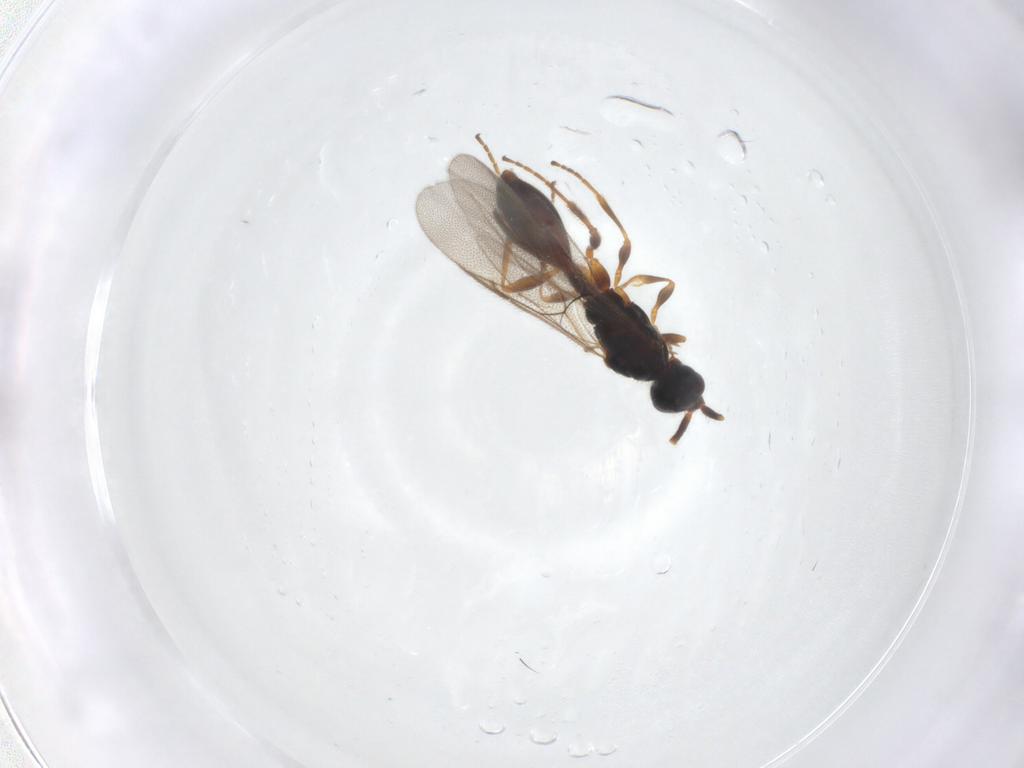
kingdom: Animalia
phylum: Arthropoda
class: Insecta
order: Hymenoptera
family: Diapriidae
